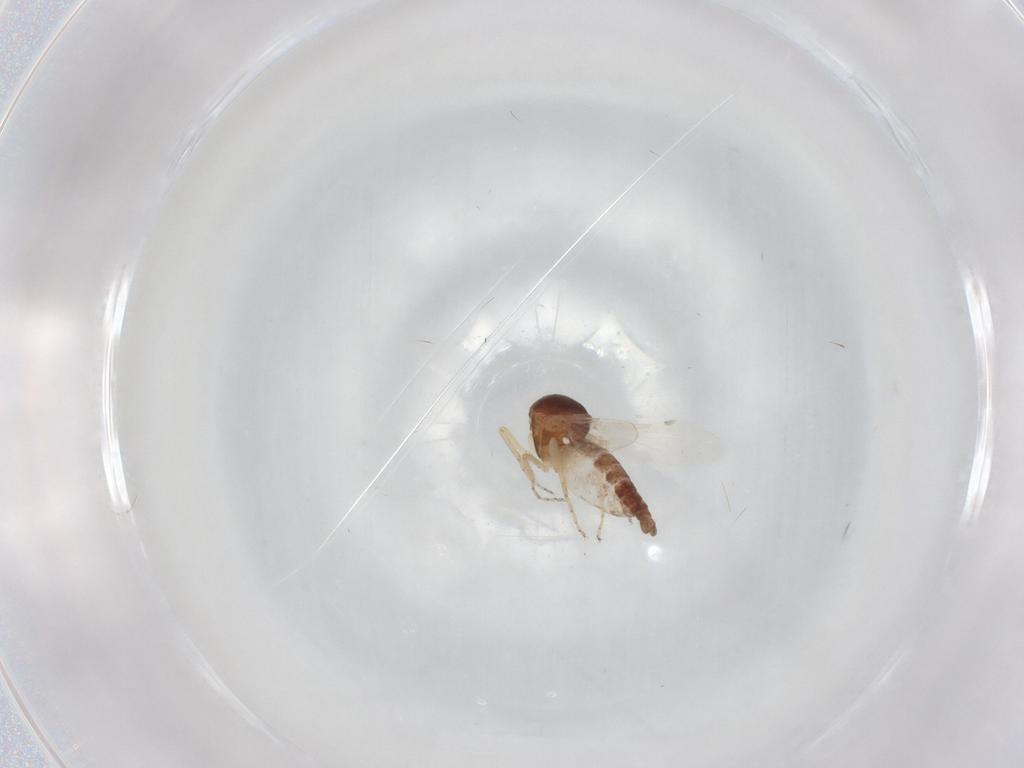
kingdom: Animalia
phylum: Arthropoda
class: Insecta
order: Diptera
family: Ceratopogonidae
